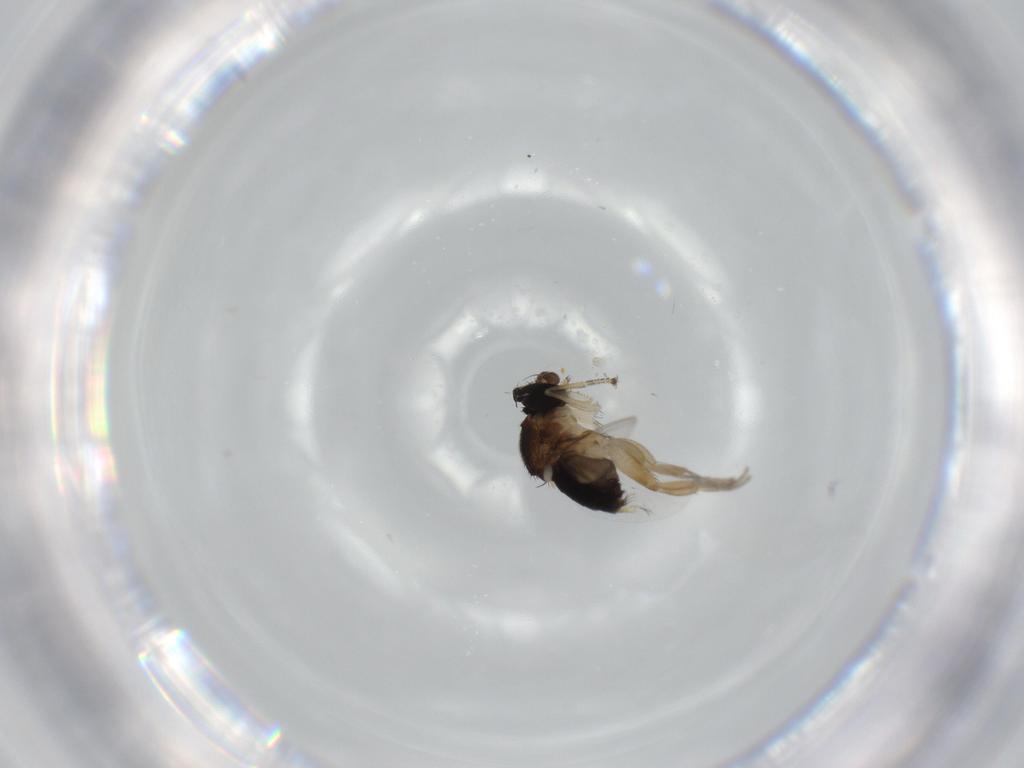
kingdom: Animalia
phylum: Arthropoda
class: Insecta
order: Diptera
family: Phoridae
